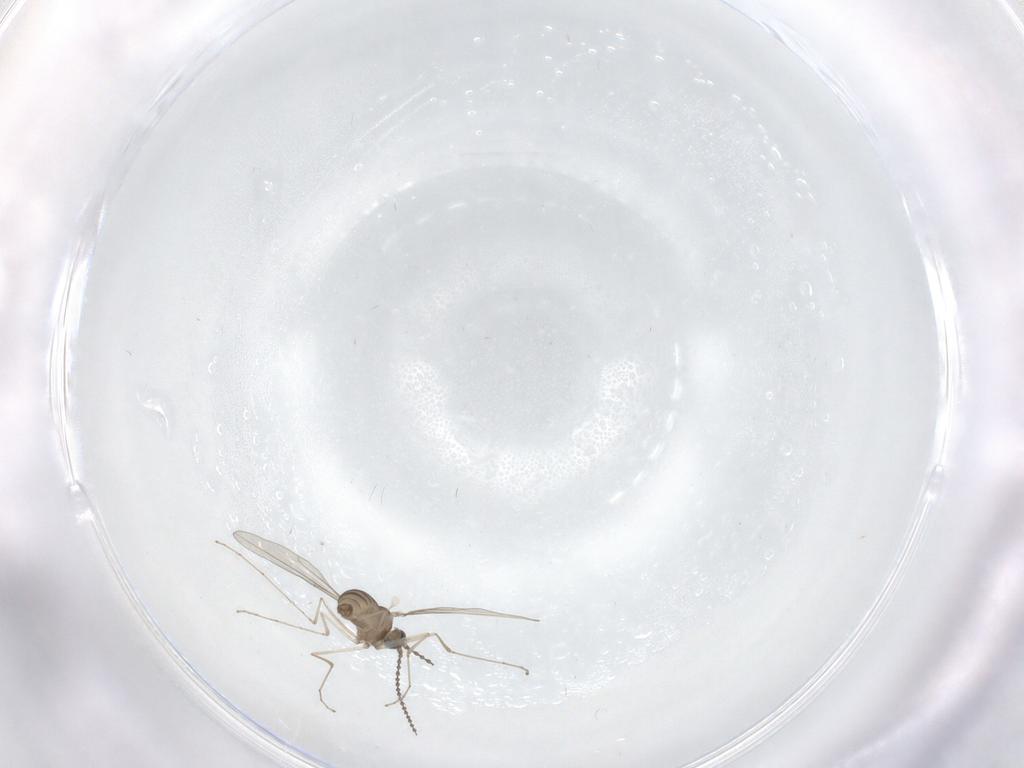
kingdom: Animalia
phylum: Arthropoda
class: Insecta
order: Diptera
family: Cecidomyiidae
